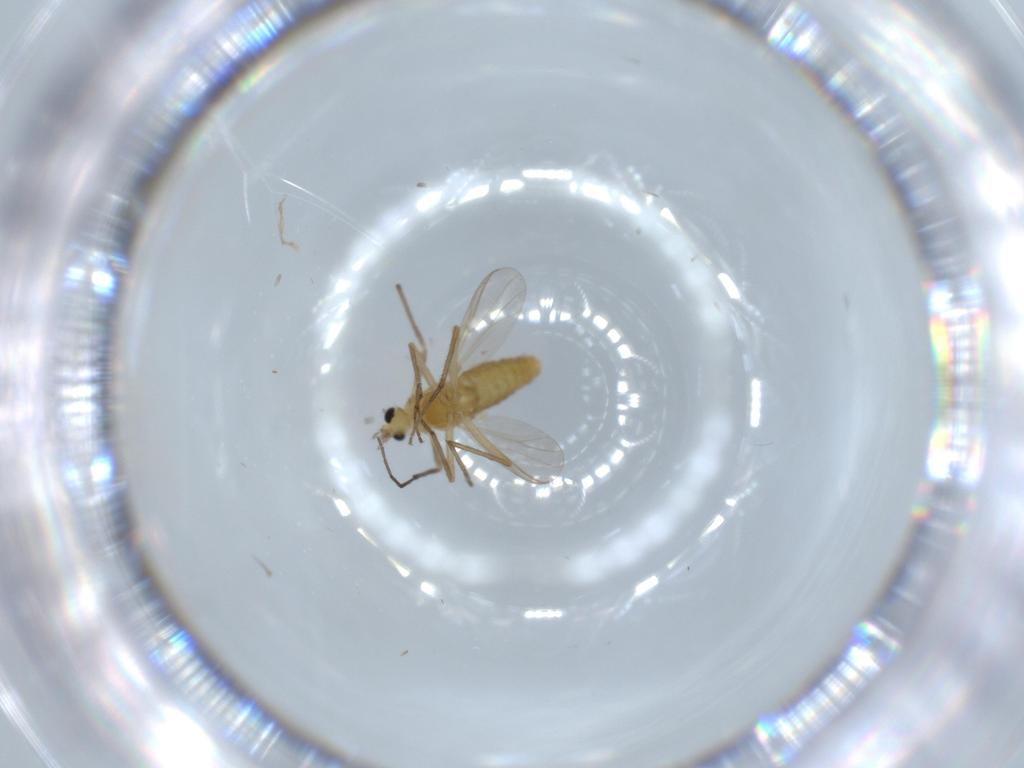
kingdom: Animalia
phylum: Arthropoda
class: Insecta
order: Diptera
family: Chironomidae
